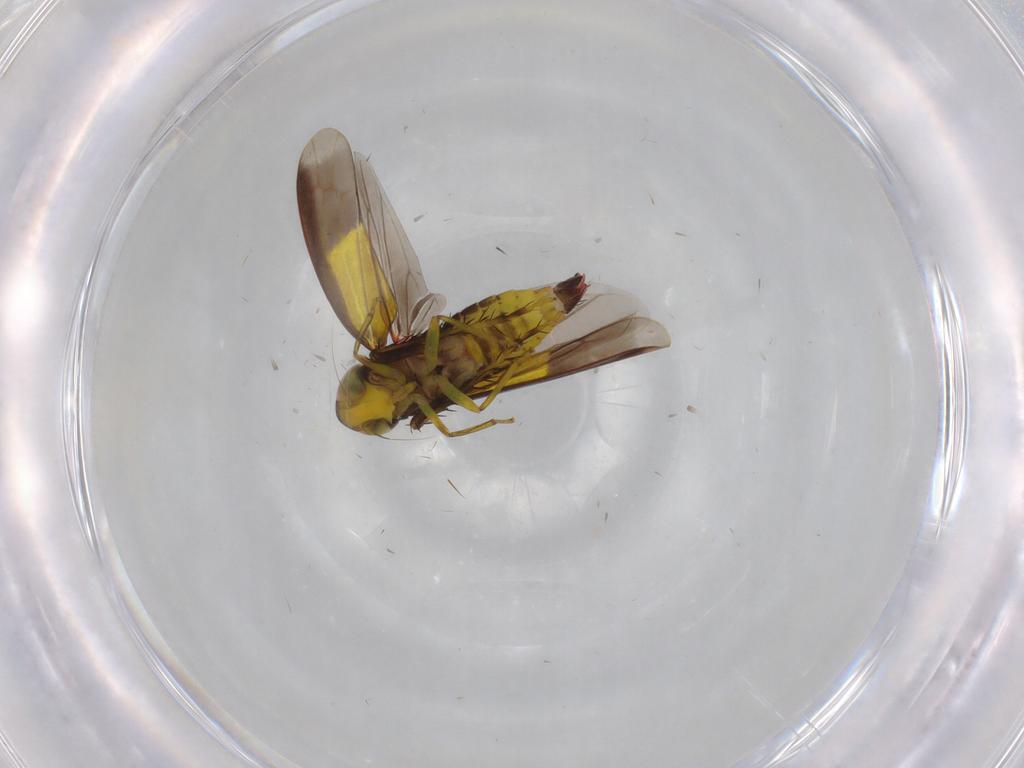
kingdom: Animalia
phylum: Arthropoda
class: Insecta
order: Hemiptera
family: Cicadellidae
